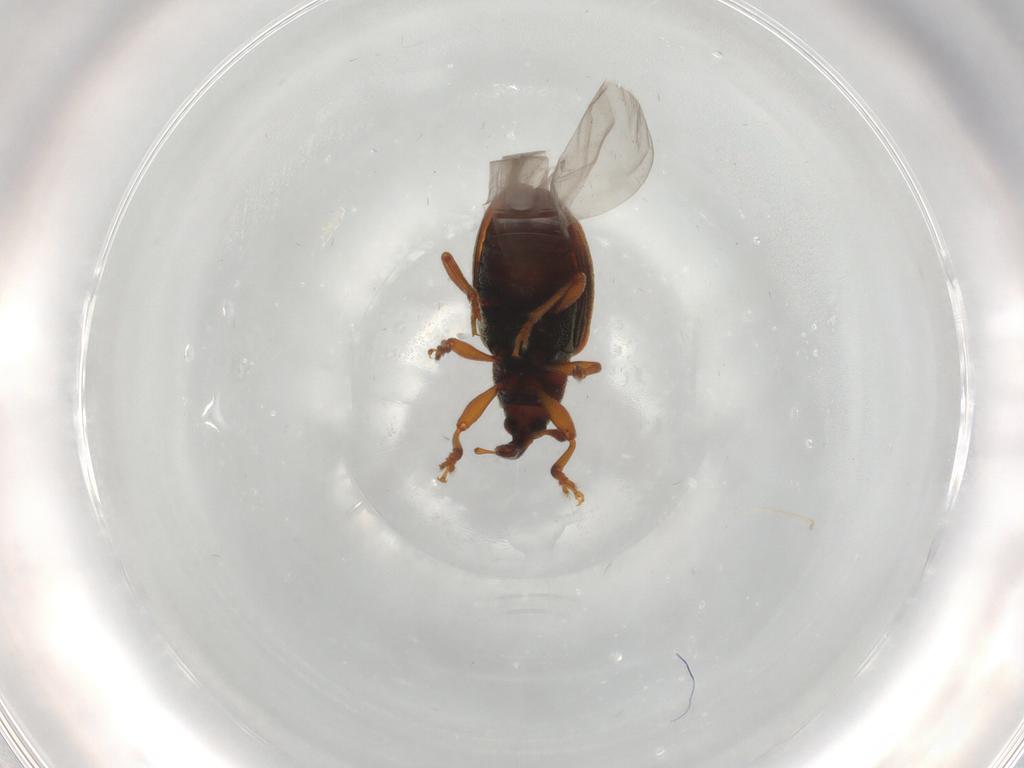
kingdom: Animalia
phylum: Arthropoda
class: Insecta
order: Coleoptera
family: Curculionidae
